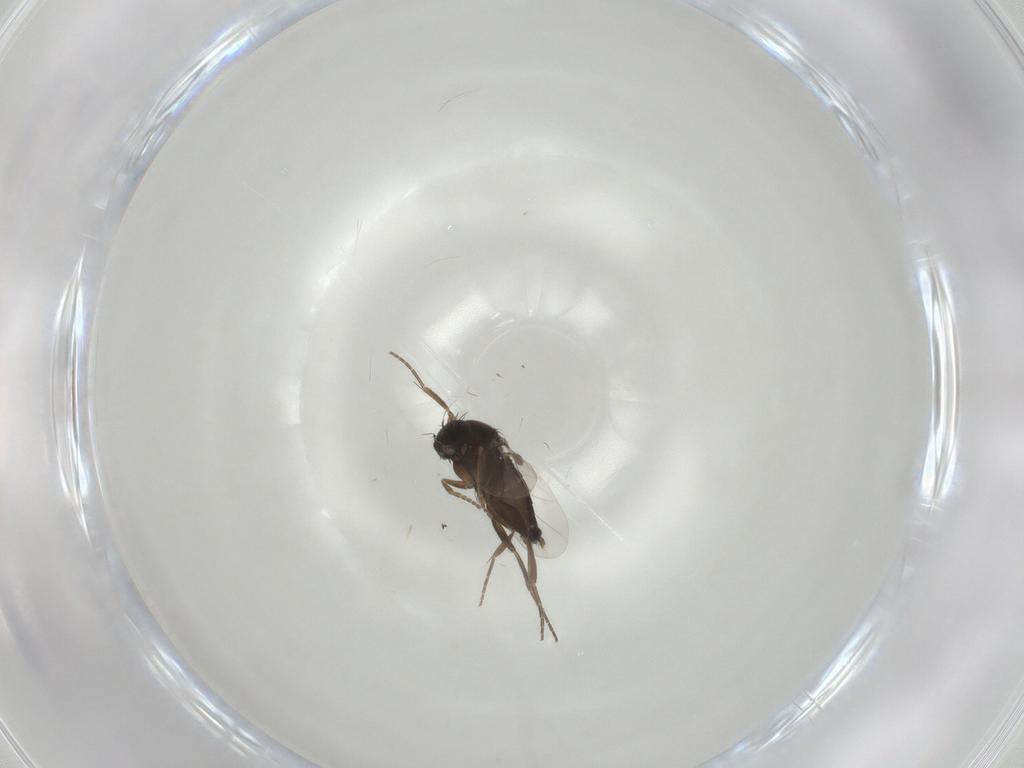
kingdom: Animalia
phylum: Arthropoda
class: Insecta
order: Diptera
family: Phoridae
